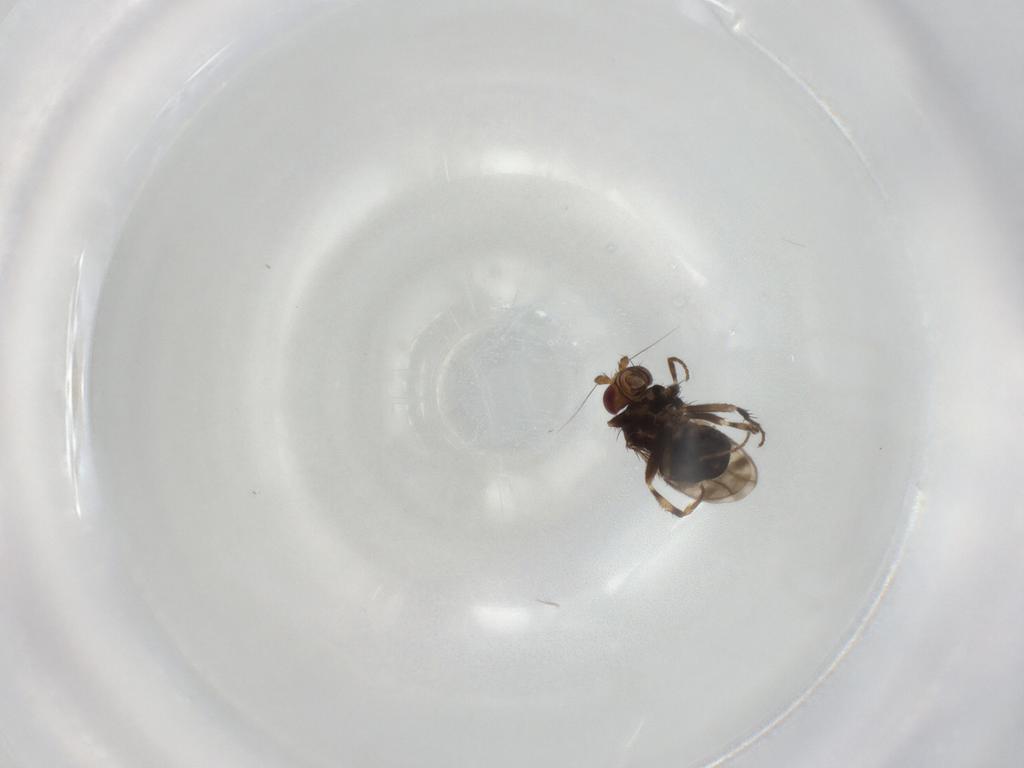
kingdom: Animalia
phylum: Arthropoda
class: Insecta
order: Diptera
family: Sphaeroceridae
